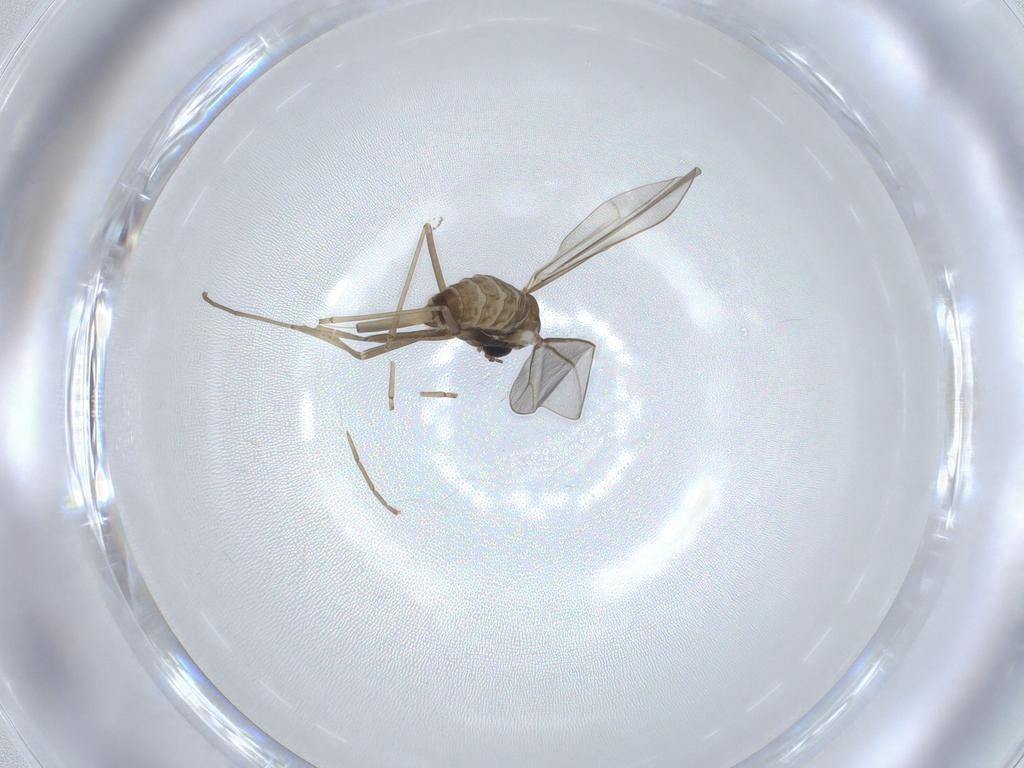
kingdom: Animalia
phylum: Arthropoda
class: Insecta
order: Diptera
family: Cecidomyiidae
